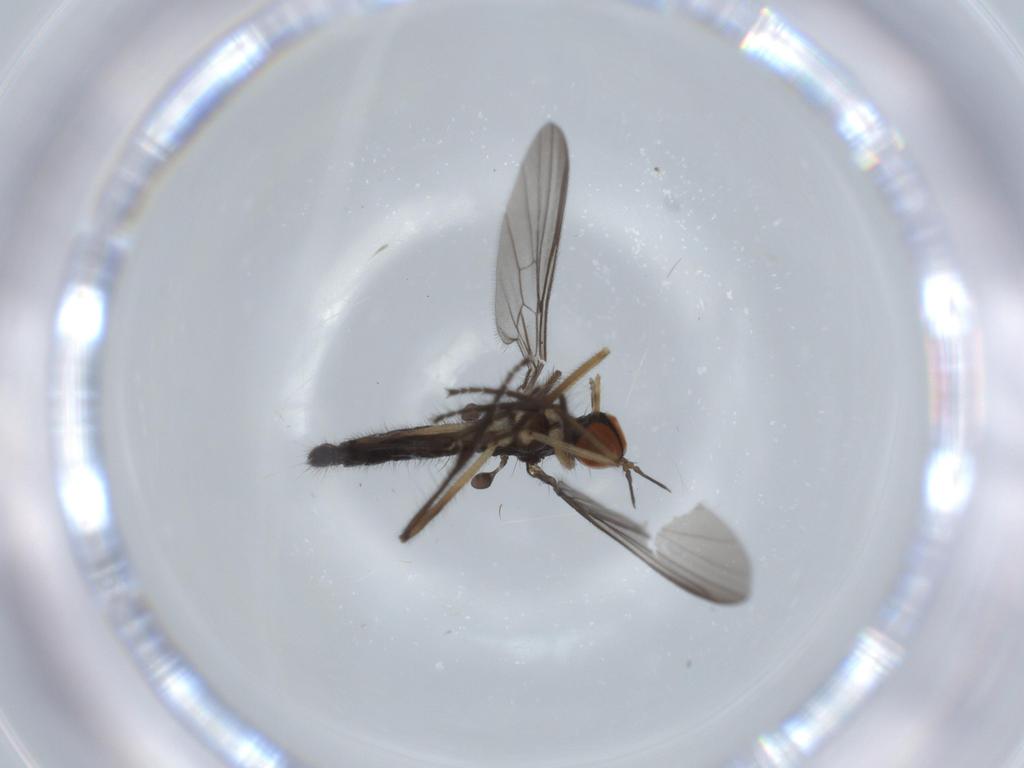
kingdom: Animalia
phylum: Arthropoda
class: Insecta
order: Diptera
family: Empididae
